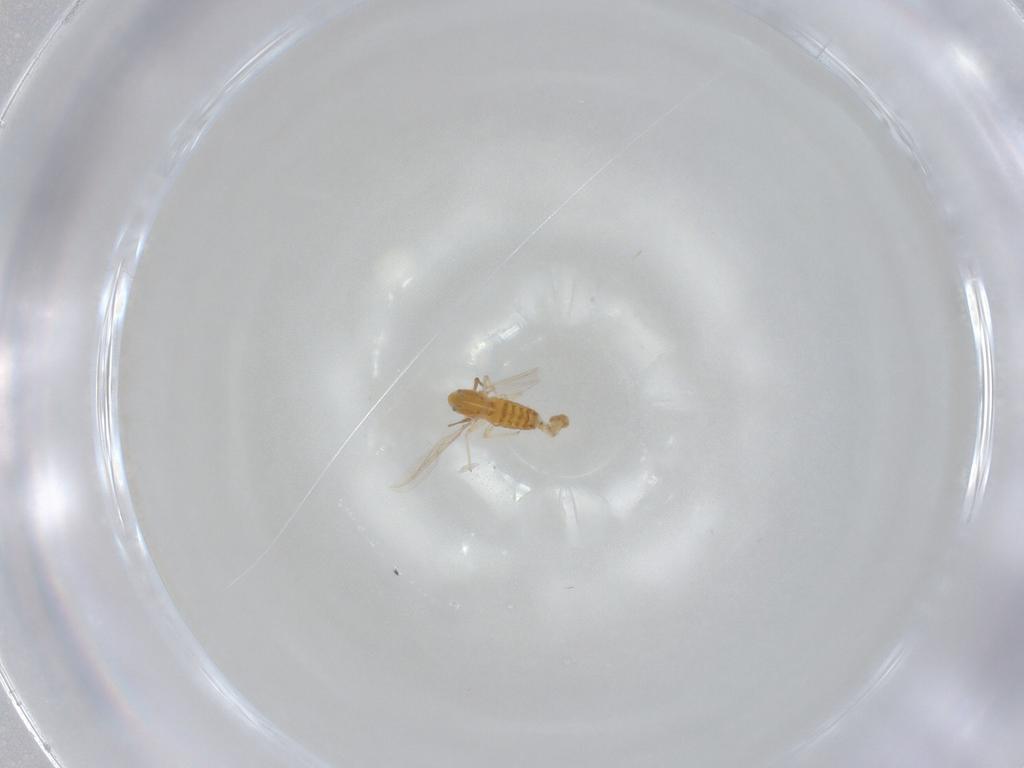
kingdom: Animalia
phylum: Arthropoda
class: Insecta
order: Diptera
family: Chironomidae
